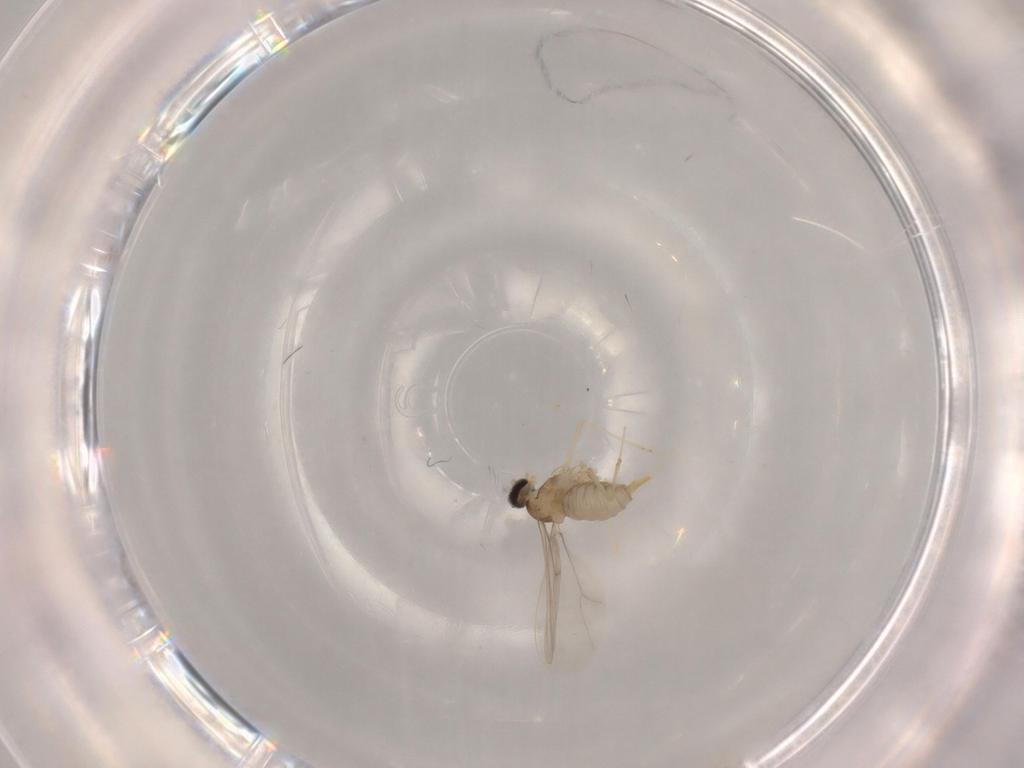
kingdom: Animalia
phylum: Arthropoda
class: Insecta
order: Diptera
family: Cecidomyiidae
